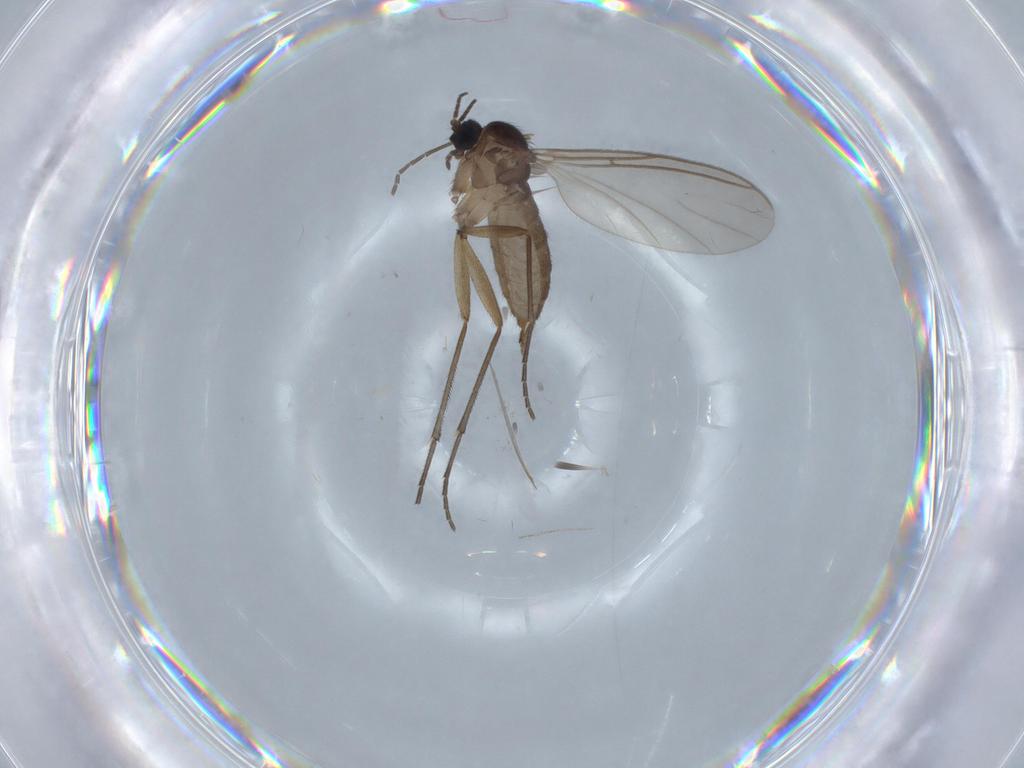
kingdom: Animalia
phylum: Arthropoda
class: Insecta
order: Diptera
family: Sciaridae
